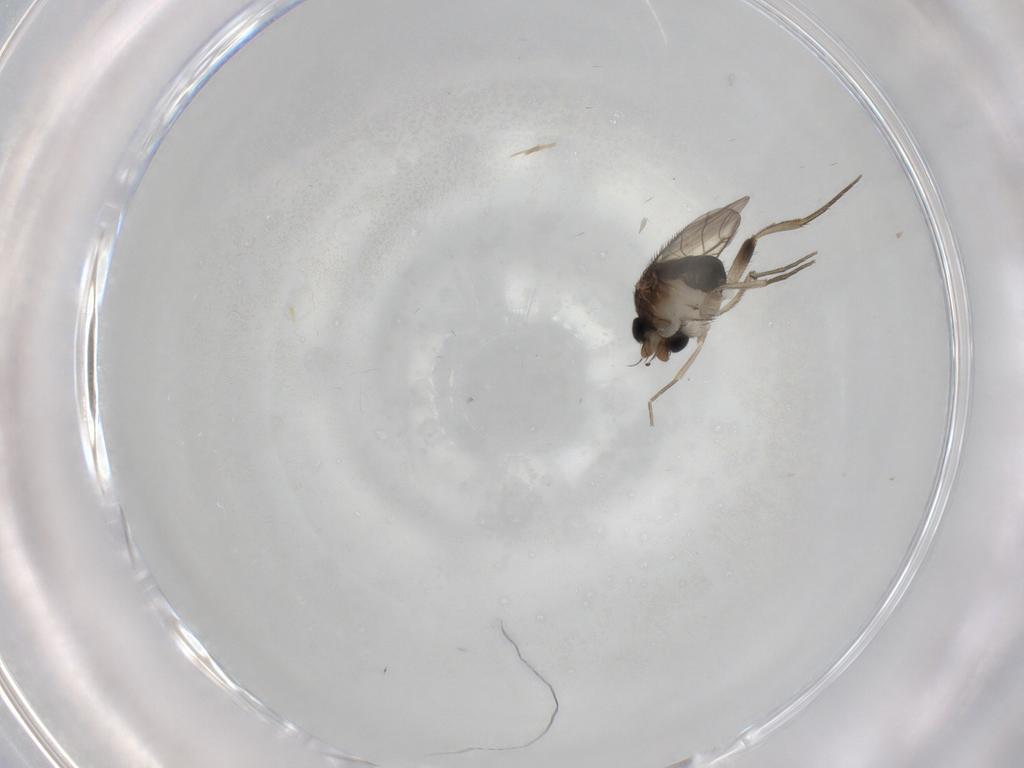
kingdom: Animalia
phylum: Arthropoda
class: Insecta
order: Diptera
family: Phoridae
